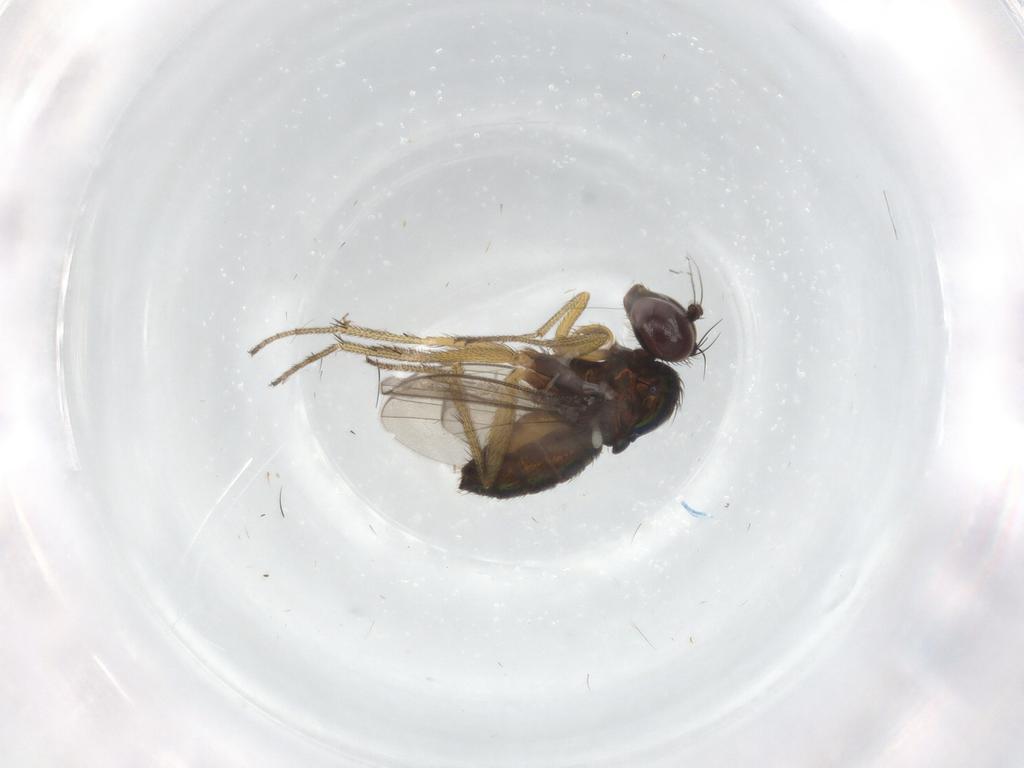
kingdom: Animalia
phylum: Arthropoda
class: Insecta
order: Diptera
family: Dolichopodidae
